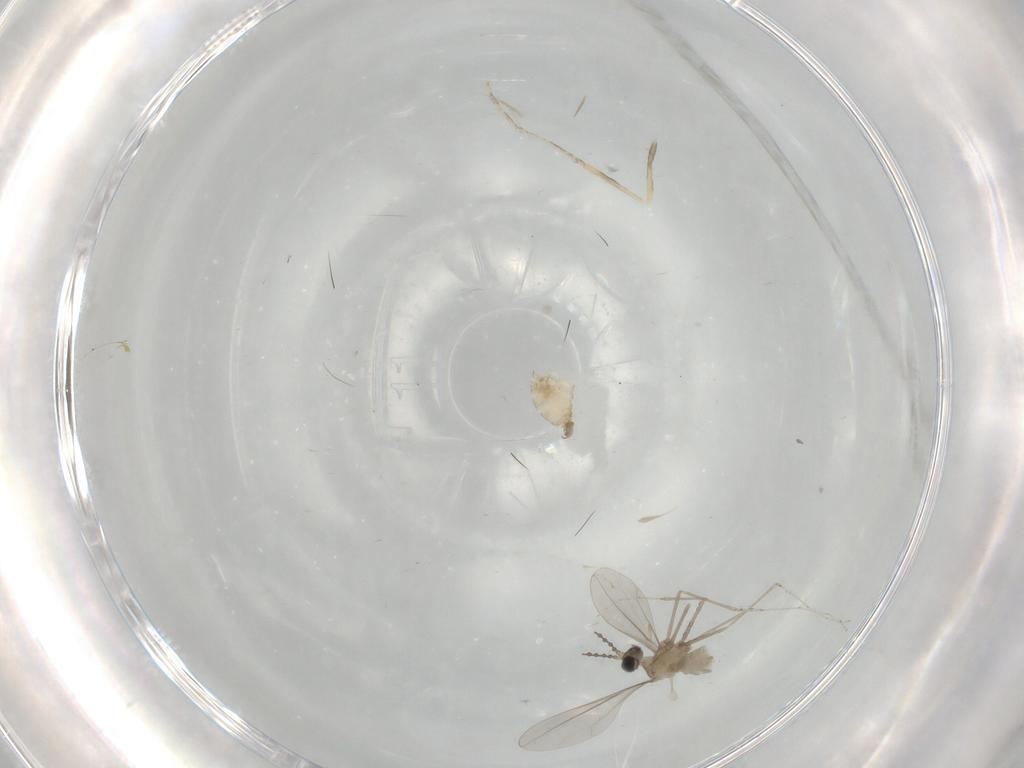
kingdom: Animalia
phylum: Arthropoda
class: Insecta
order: Diptera
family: Cecidomyiidae
